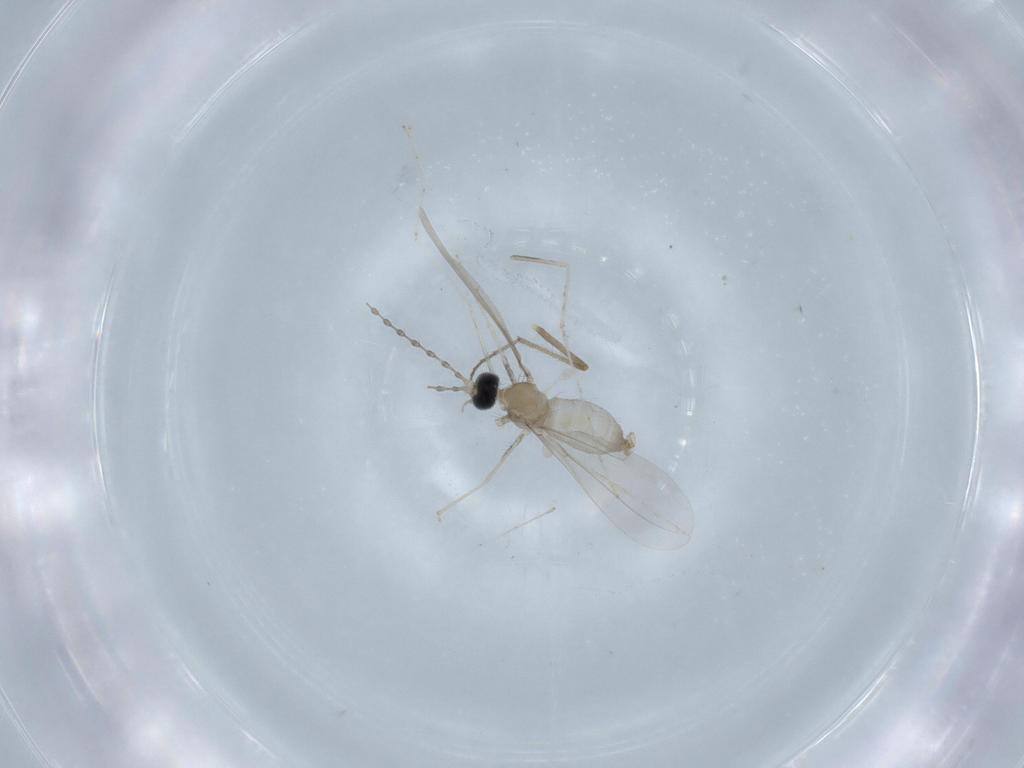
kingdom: Animalia
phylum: Arthropoda
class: Insecta
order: Diptera
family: Cecidomyiidae
